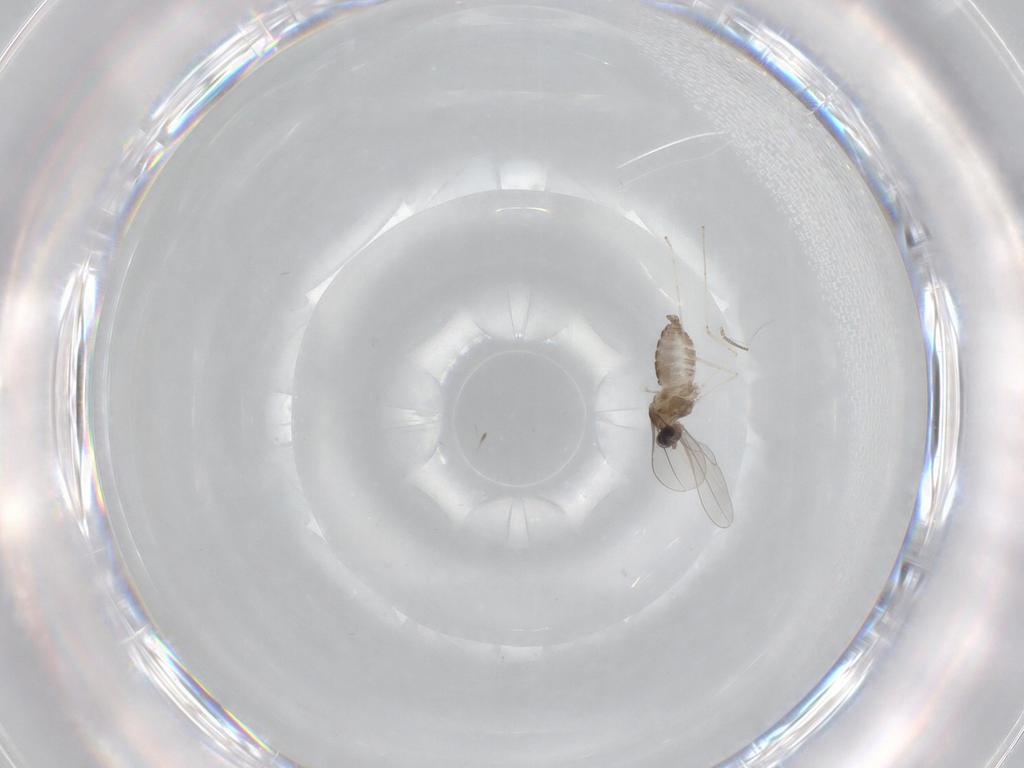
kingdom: Animalia
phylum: Arthropoda
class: Insecta
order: Diptera
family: Cecidomyiidae
